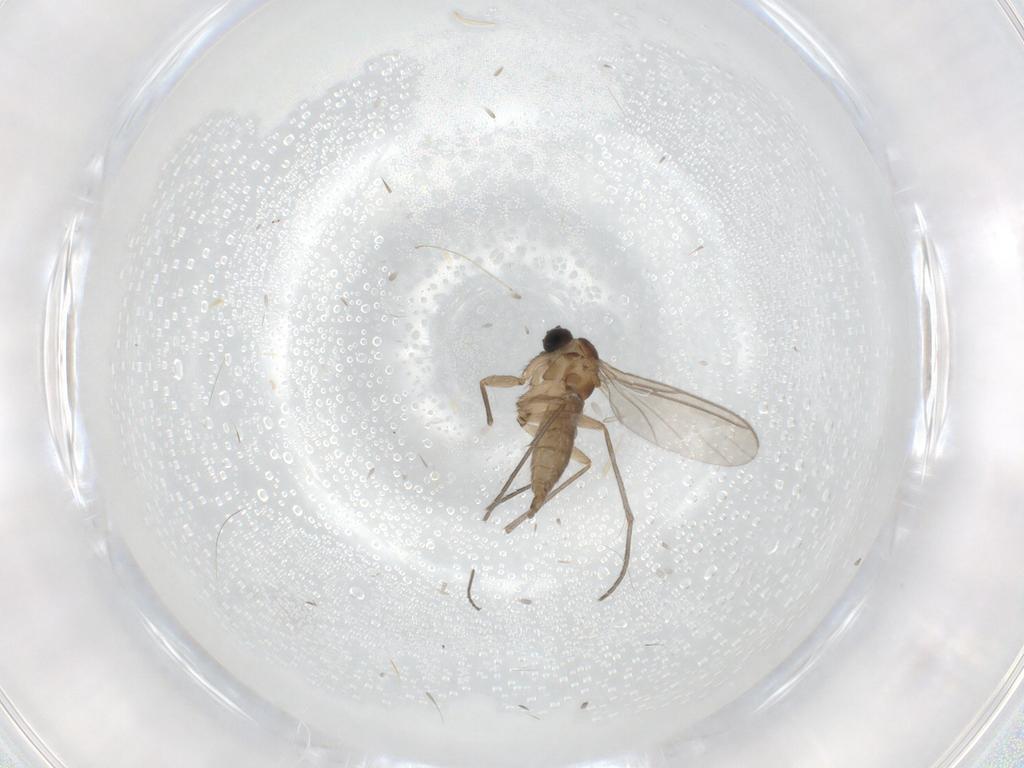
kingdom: Animalia
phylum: Arthropoda
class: Insecta
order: Diptera
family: Sciaridae
